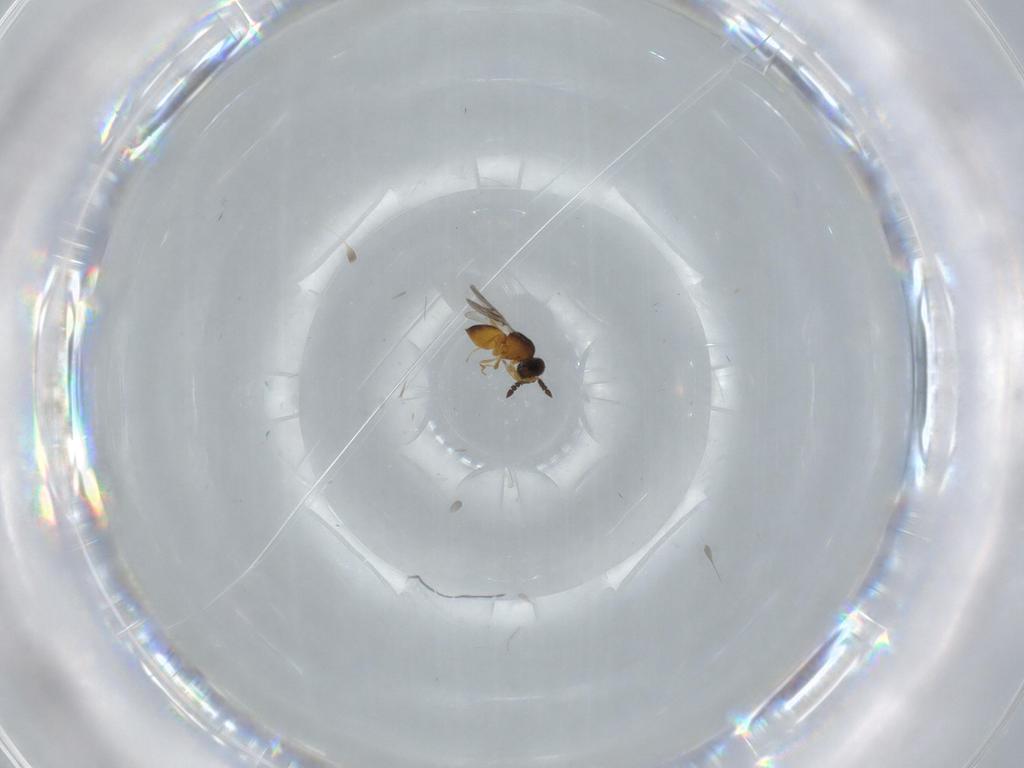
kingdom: Animalia
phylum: Arthropoda
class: Insecta
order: Hymenoptera
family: Ceraphronidae
